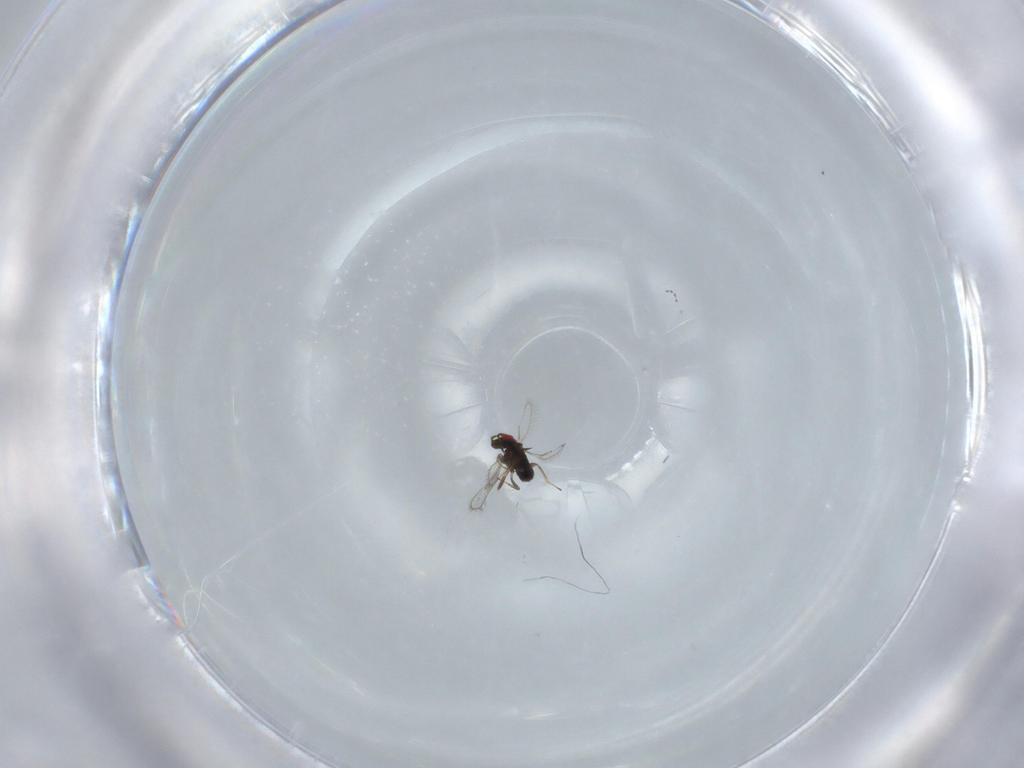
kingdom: Animalia
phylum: Arthropoda
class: Insecta
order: Hymenoptera
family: Azotidae
